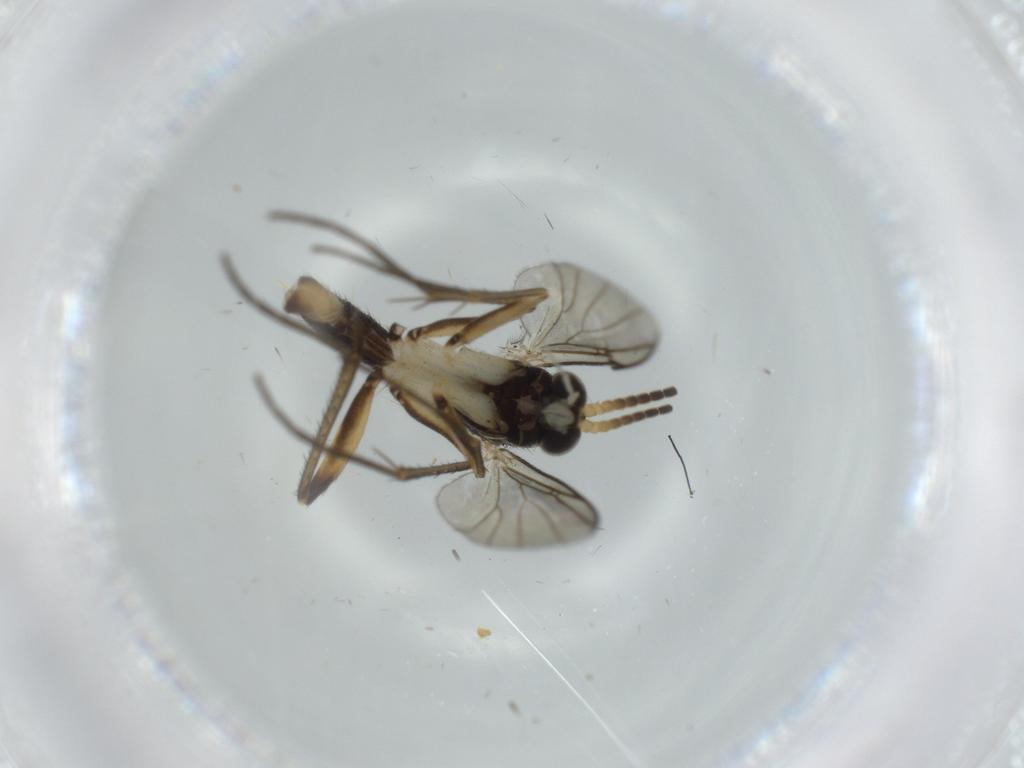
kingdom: Animalia
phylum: Arthropoda
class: Insecta
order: Diptera
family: Mycetophilidae
